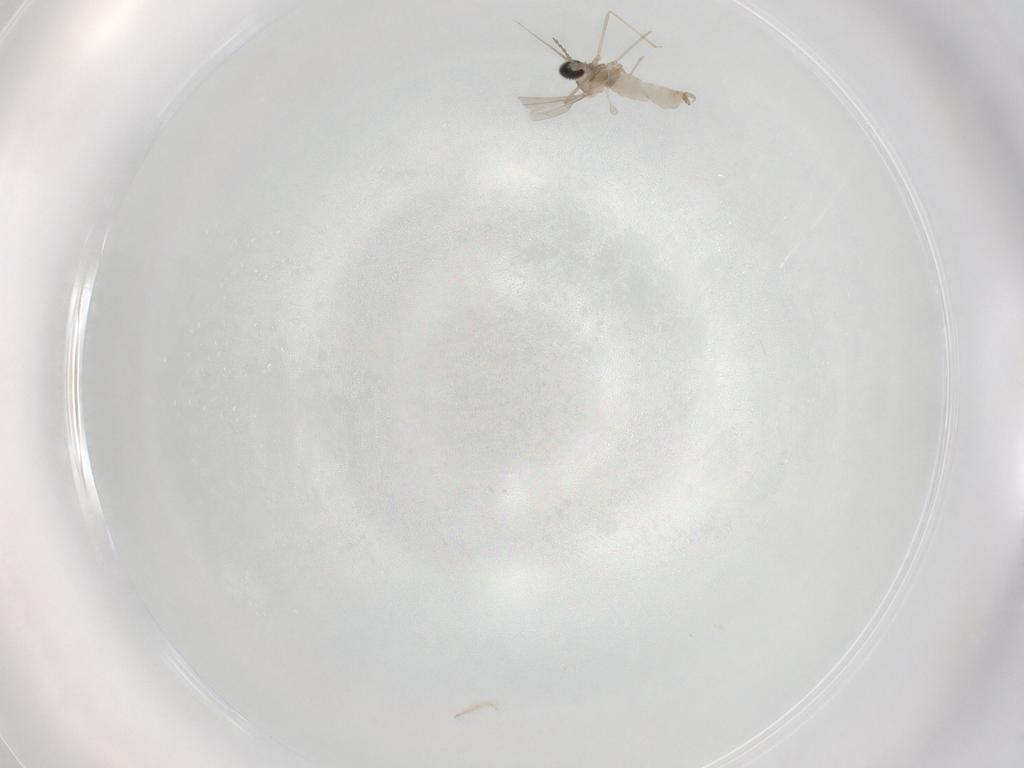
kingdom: Animalia
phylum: Arthropoda
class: Insecta
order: Diptera
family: Cecidomyiidae
